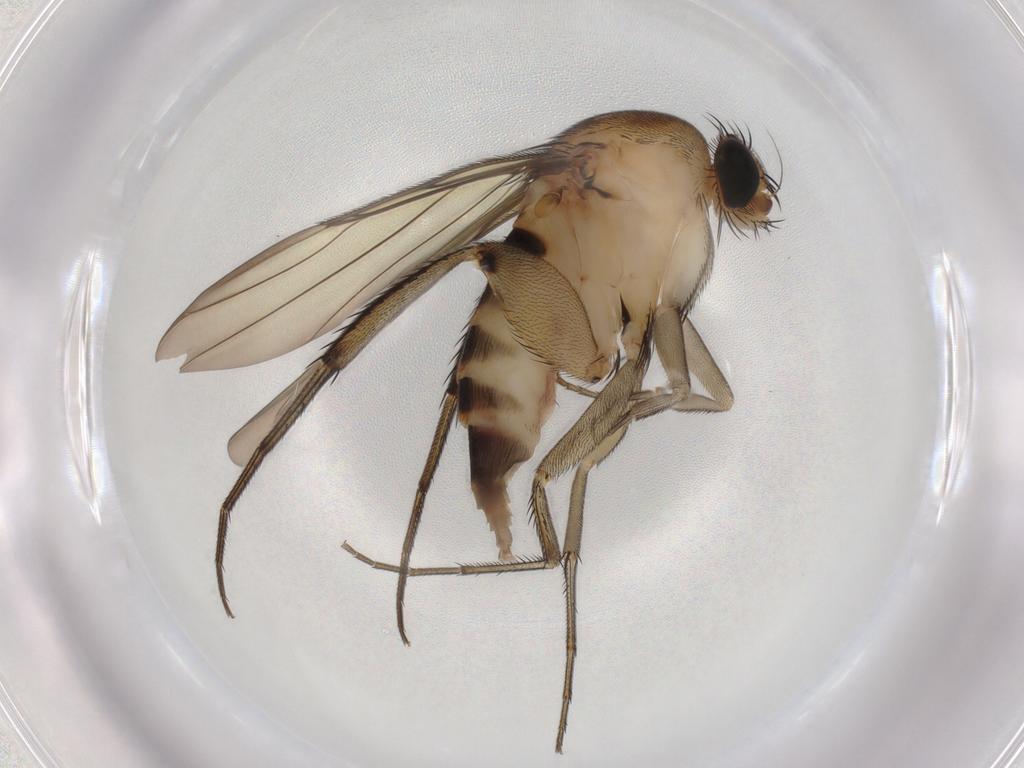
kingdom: Animalia
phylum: Arthropoda
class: Insecta
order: Diptera
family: Phoridae
